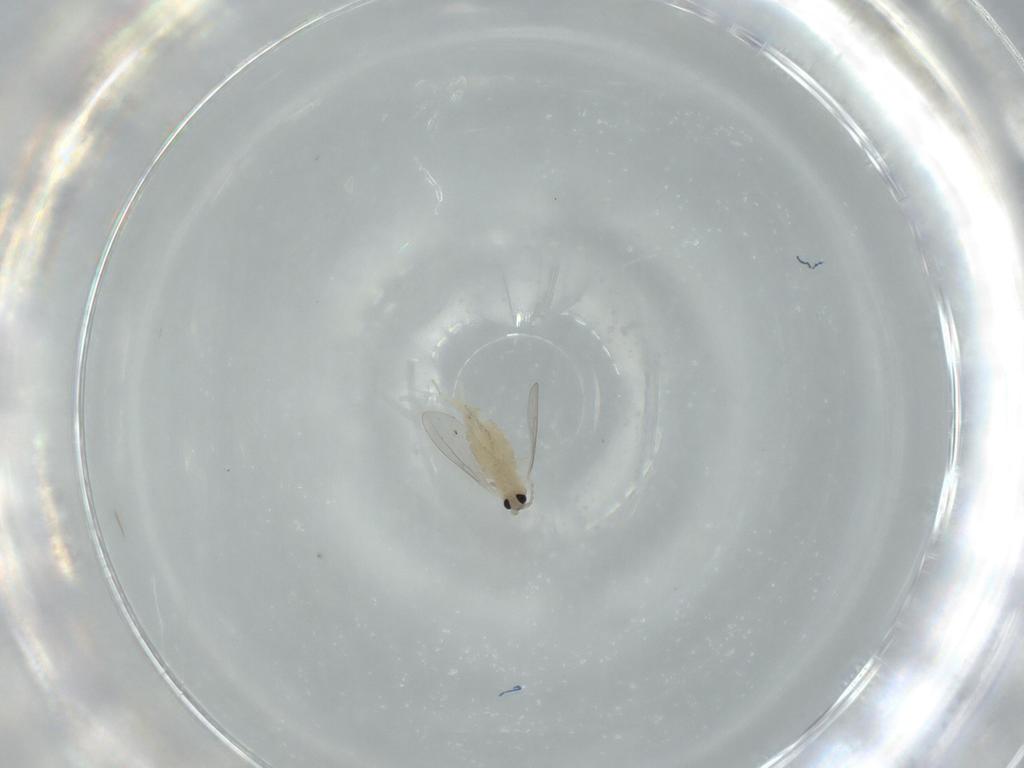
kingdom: Animalia
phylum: Arthropoda
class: Insecta
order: Diptera
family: Cecidomyiidae
